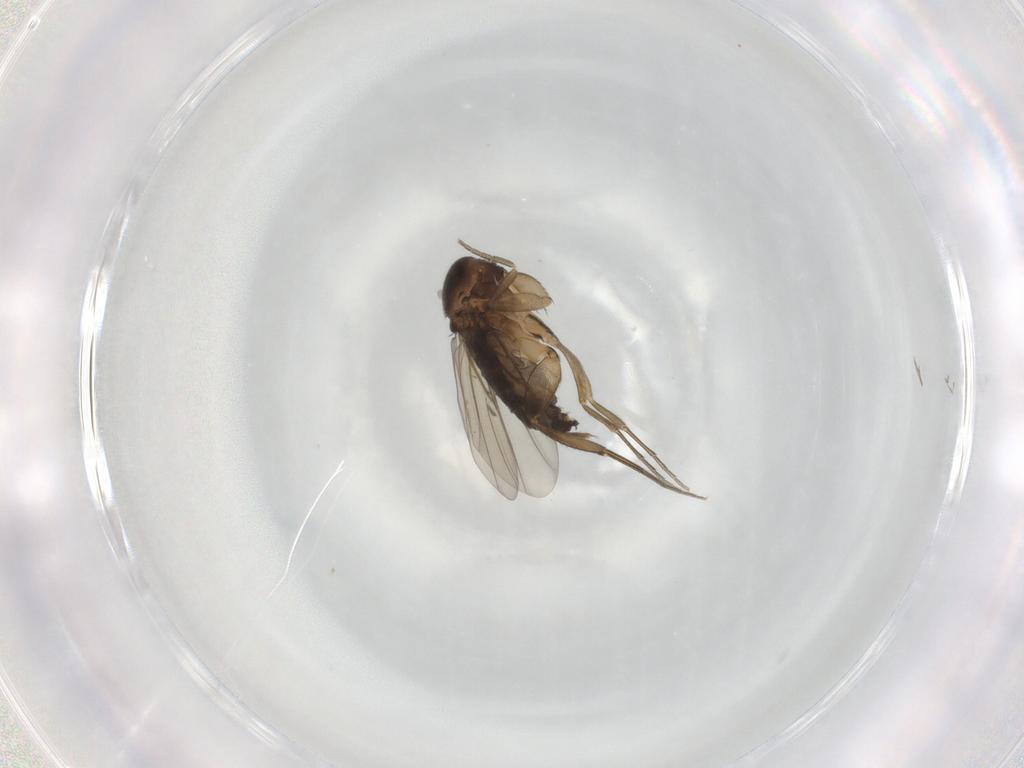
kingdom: Animalia
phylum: Arthropoda
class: Insecta
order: Diptera
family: Phoridae
